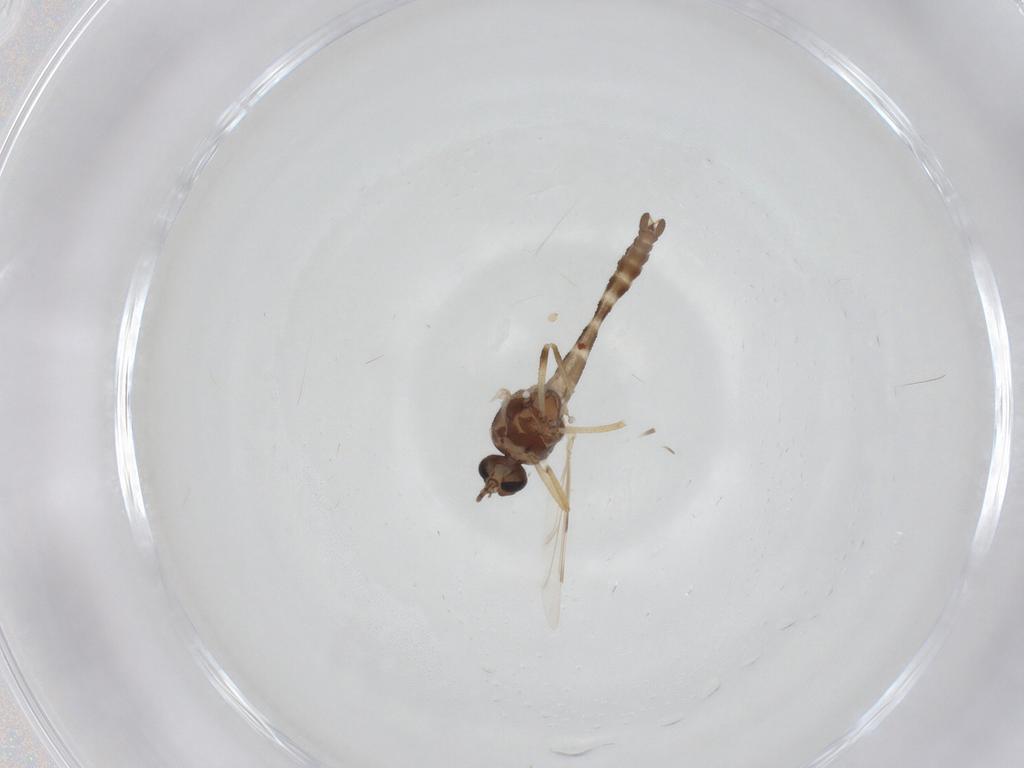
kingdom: Animalia
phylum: Arthropoda
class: Insecta
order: Diptera
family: Ceratopogonidae
